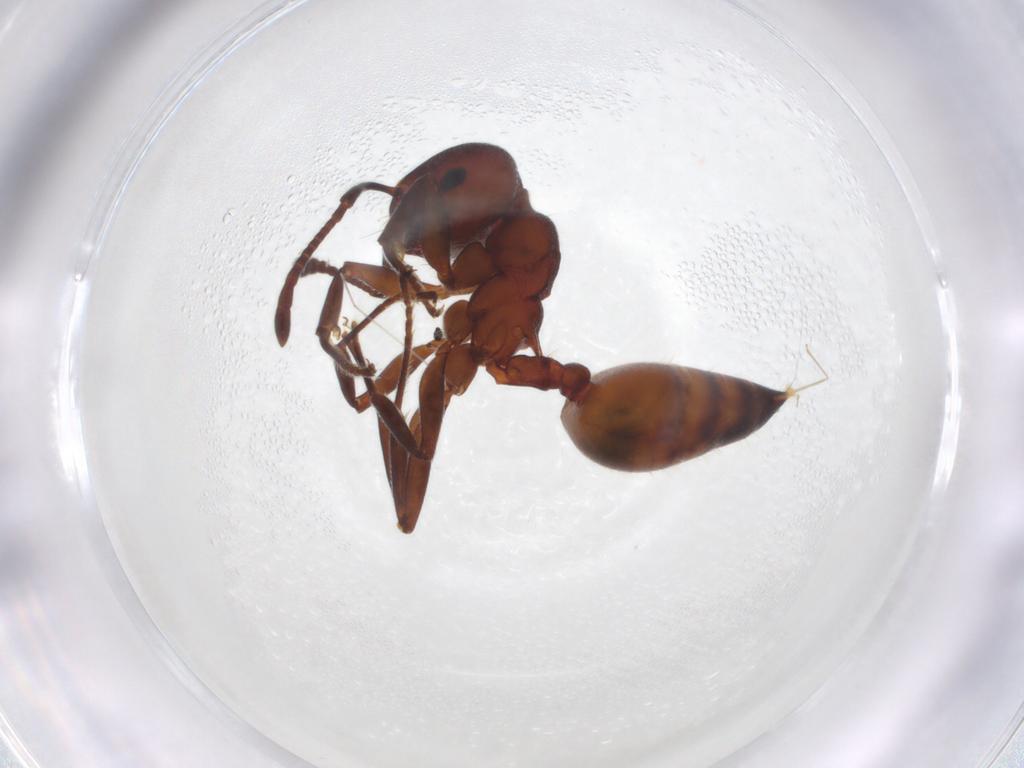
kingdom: Animalia
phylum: Arthropoda
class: Insecta
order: Hymenoptera
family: Formicidae
